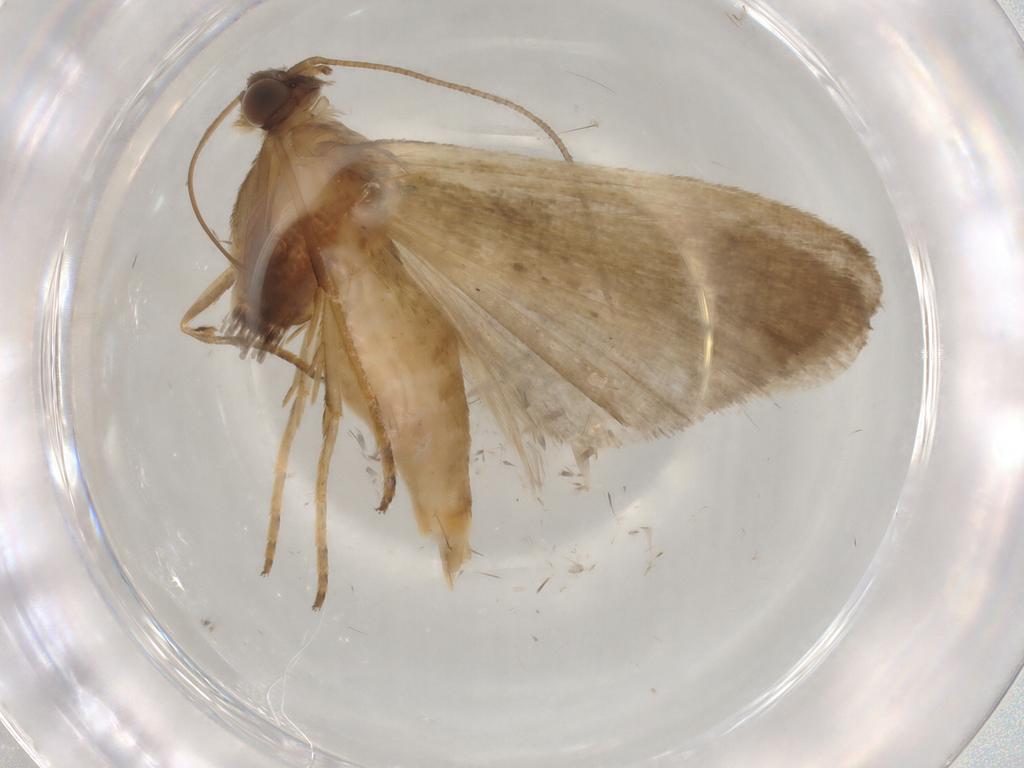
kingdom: Animalia
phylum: Arthropoda
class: Insecta
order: Lepidoptera
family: Noctuidae
